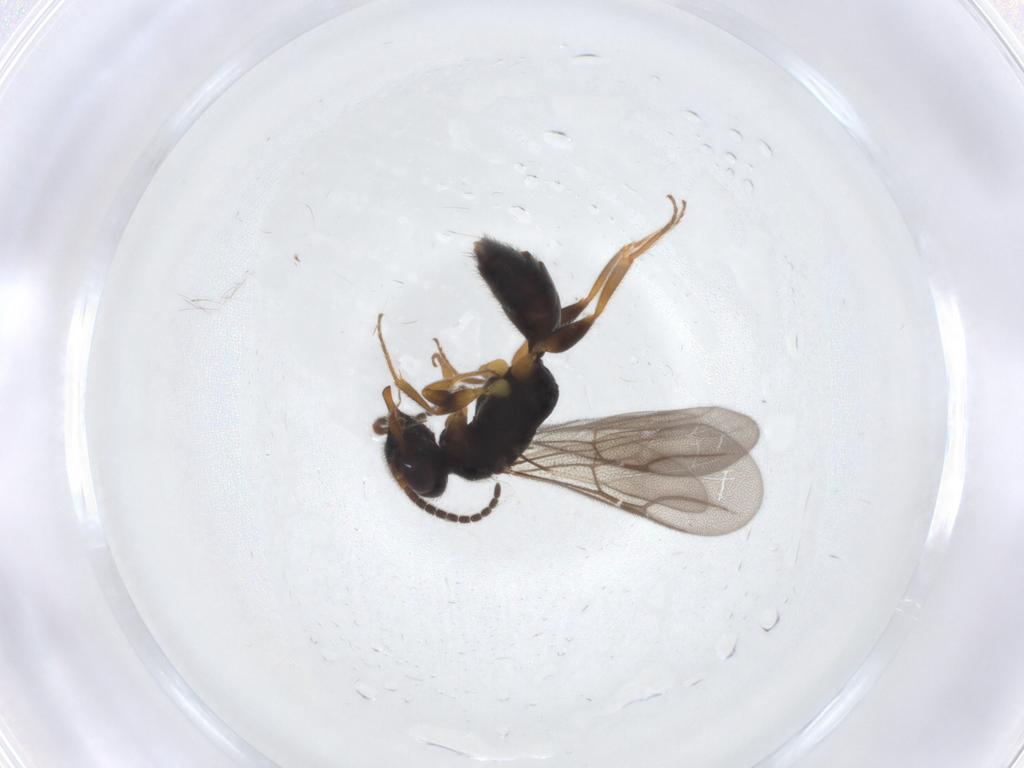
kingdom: Animalia
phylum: Arthropoda
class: Insecta
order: Hymenoptera
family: Bethylidae
